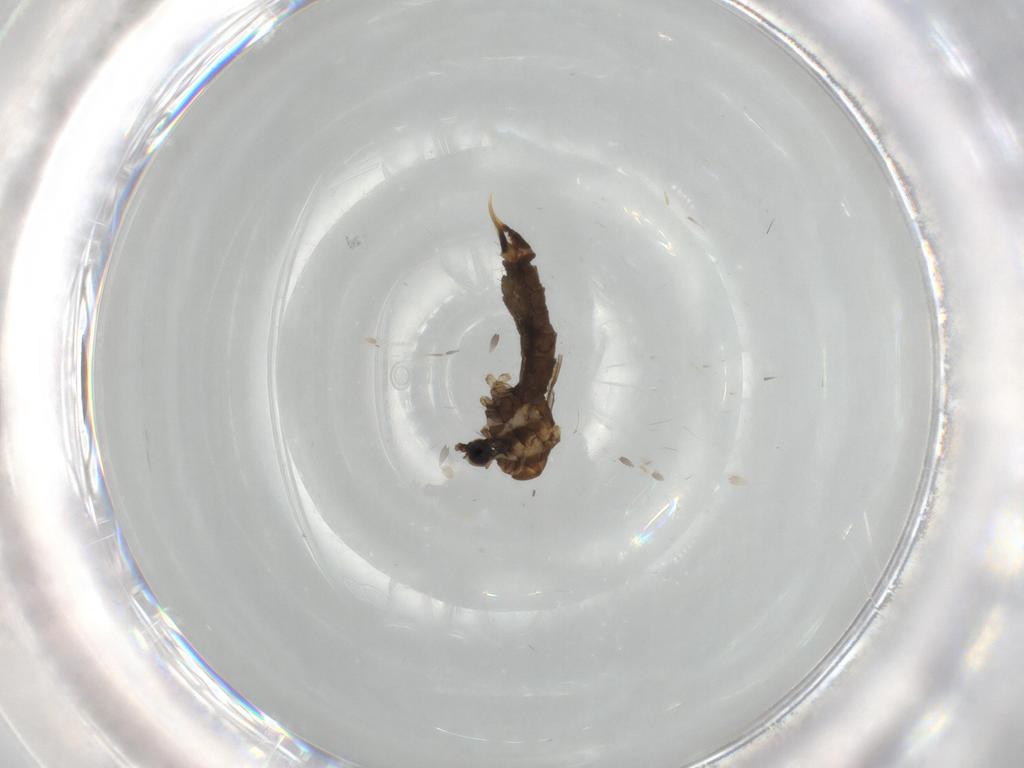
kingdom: Animalia
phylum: Arthropoda
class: Insecta
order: Diptera
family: Limoniidae
